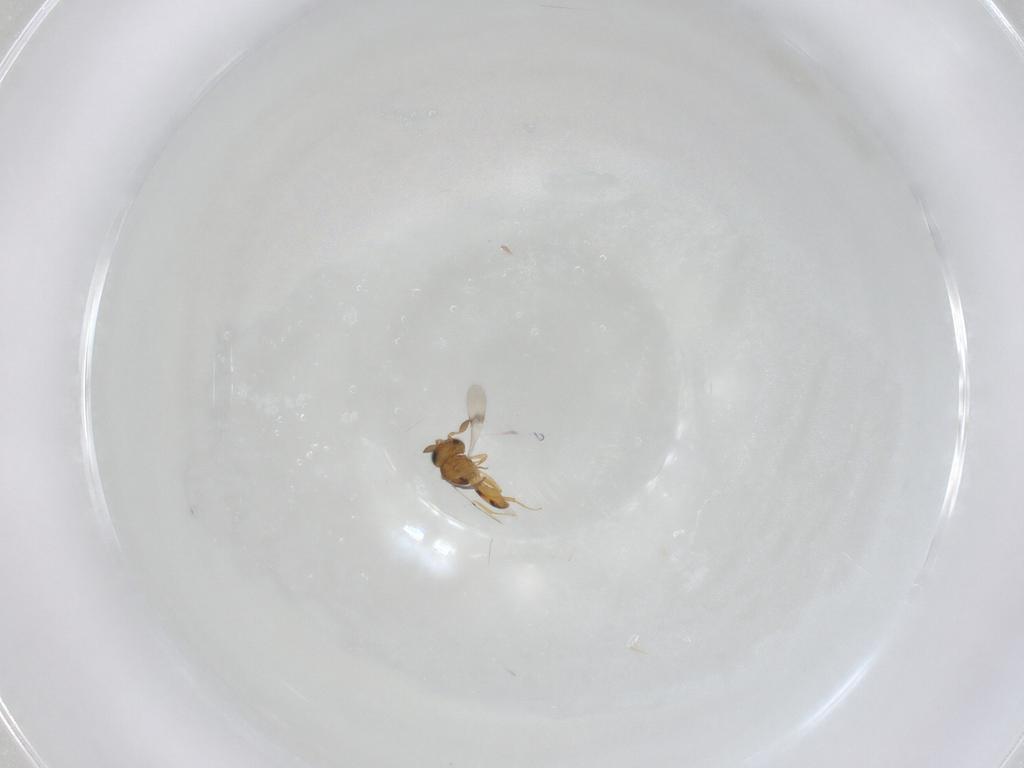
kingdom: Animalia
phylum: Arthropoda
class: Insecta
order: Hymenoptera
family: Scelionidae
